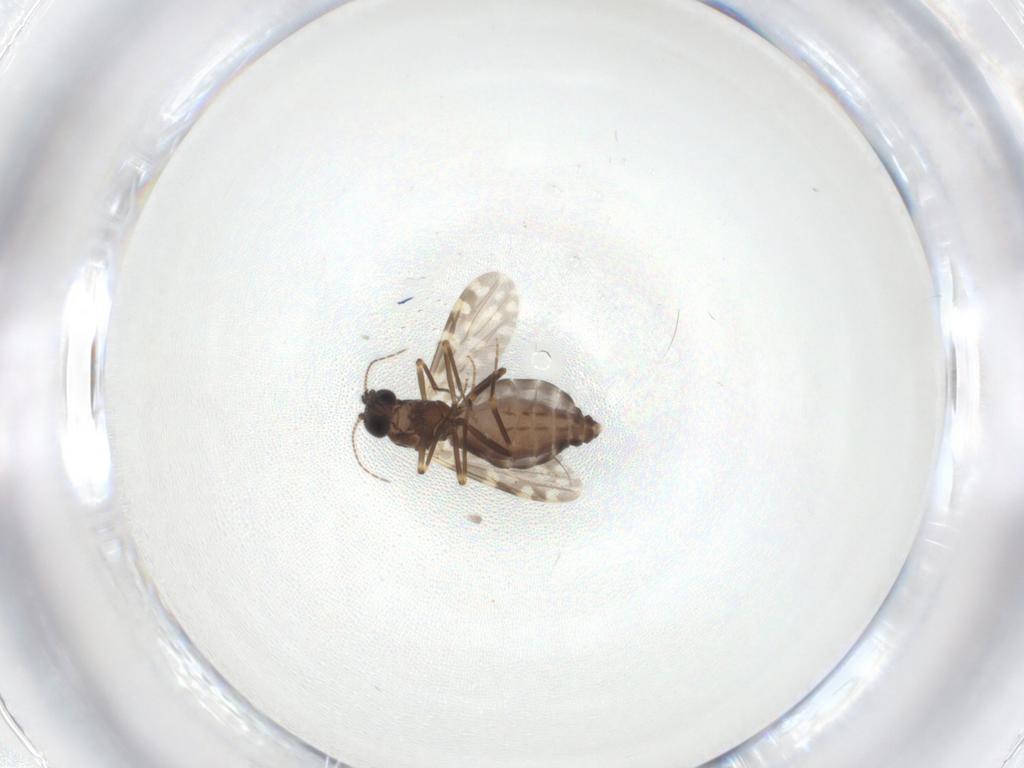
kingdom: Animalia
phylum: Arthropoda
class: Insecta
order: Diptera
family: Ceratopogonidae
